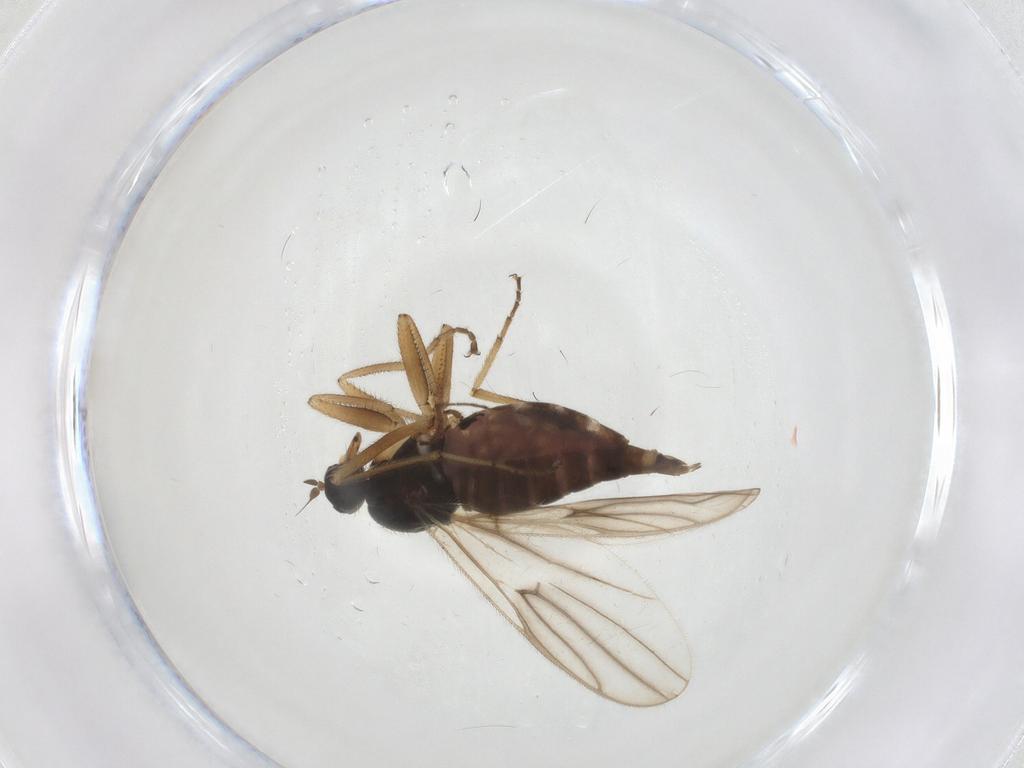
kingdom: Animalia
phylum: Arthropoda
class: Insecta
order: Diptera
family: Hybotidae
